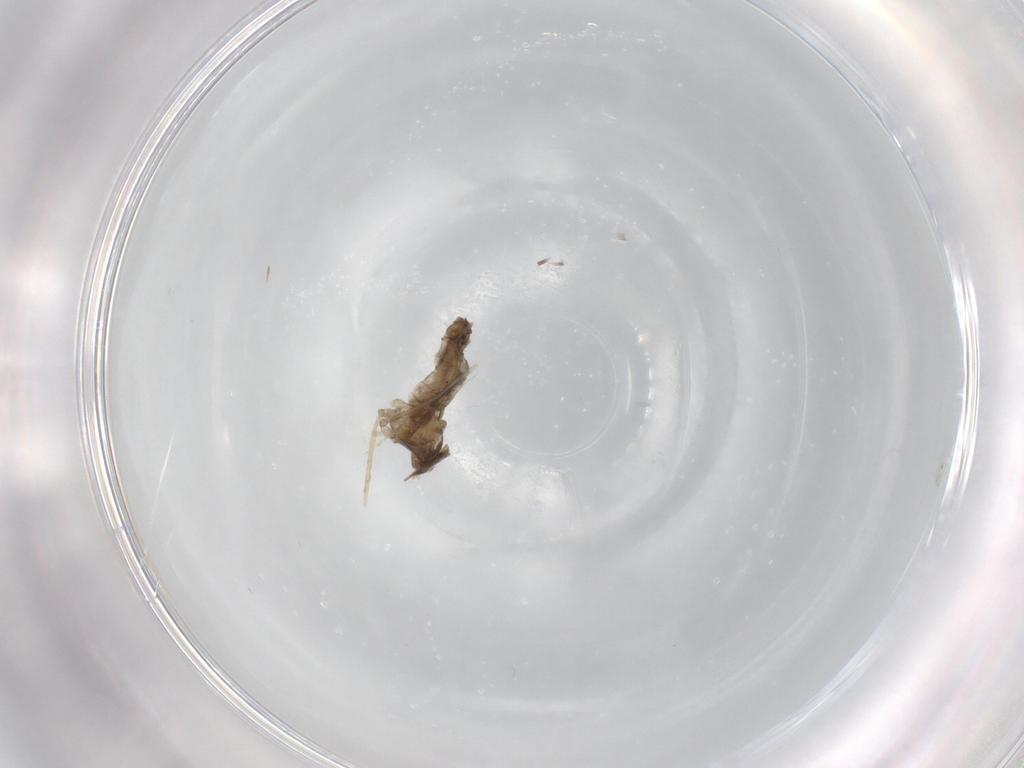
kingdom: Animalia
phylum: Arthropoda
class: Insecta
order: Diptera
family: Cecidomyiidae
